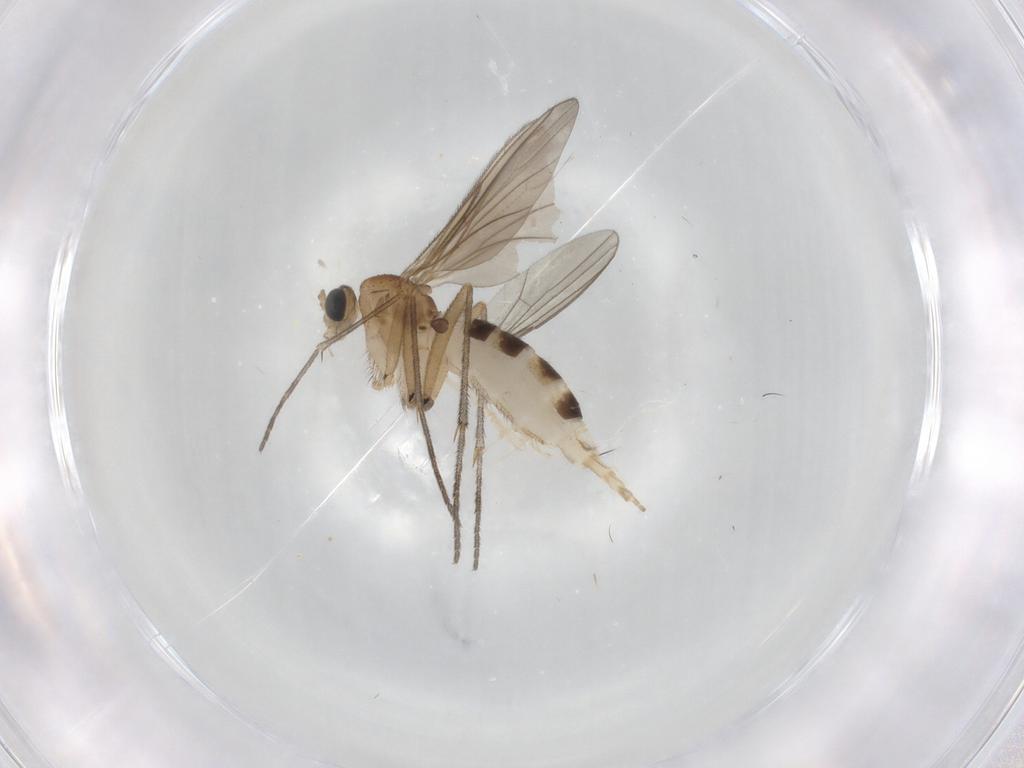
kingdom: Animalia
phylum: Arthropoda
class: Insecta
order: Diptera
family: Sciaridae
